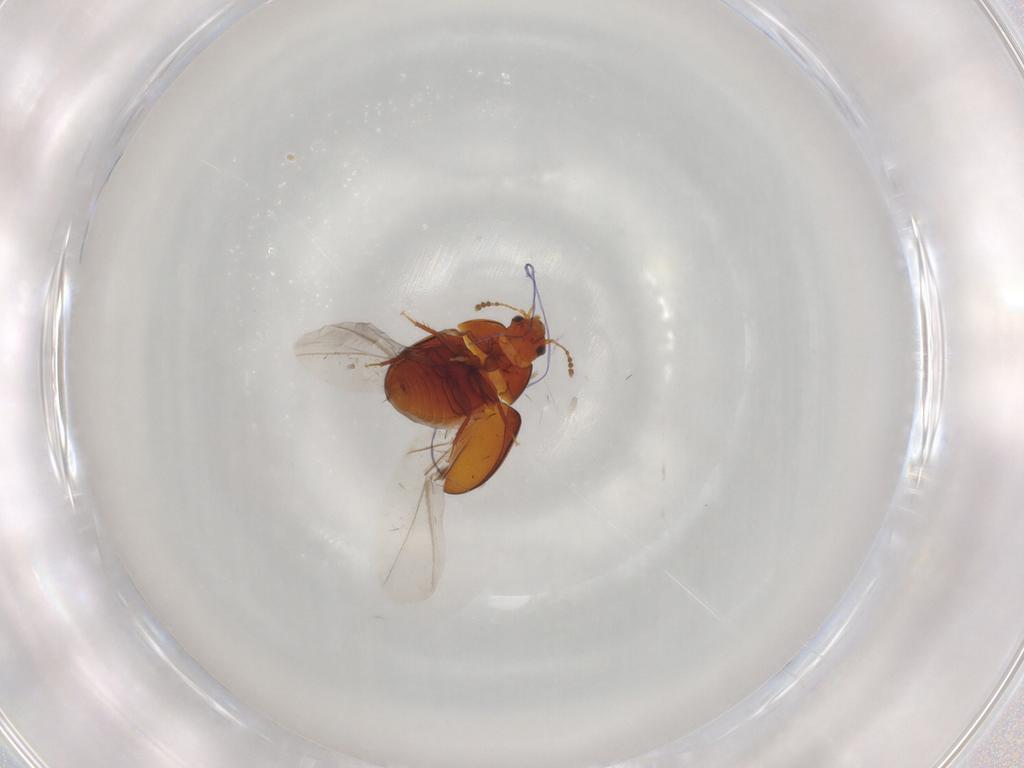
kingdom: Animalia
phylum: Arthropoda
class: Insecta
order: Coleoptera
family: Leiodidae
